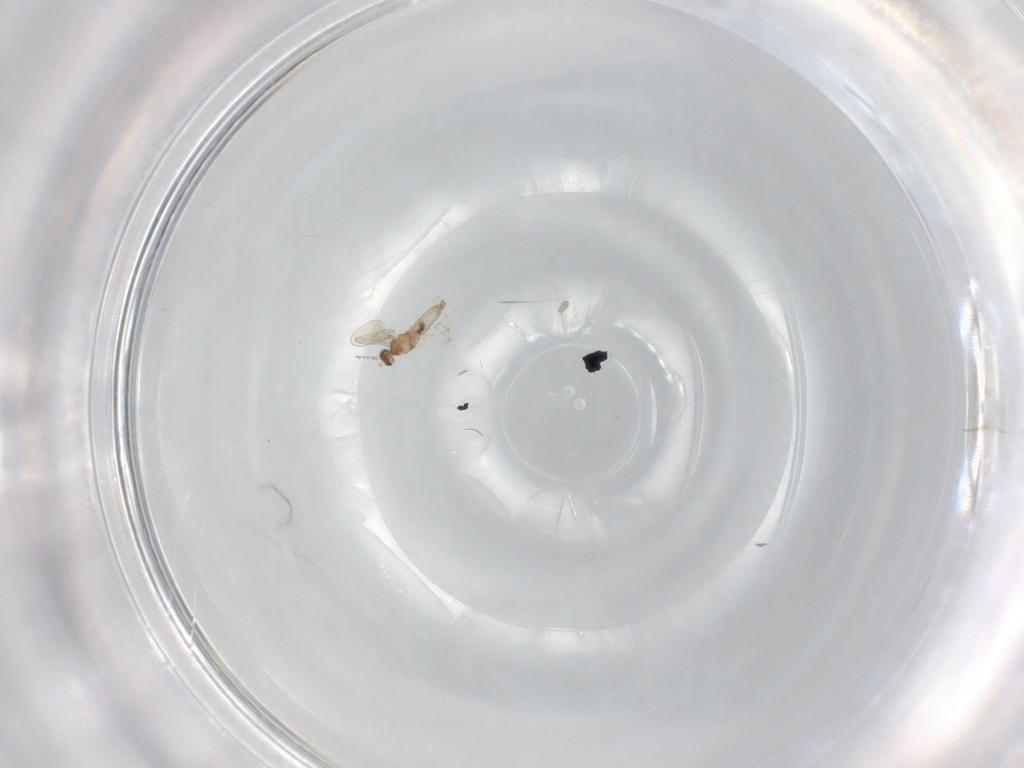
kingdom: Animalia
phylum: Arthropoda
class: Insecta
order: Diptera
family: Cecidomyiidae
